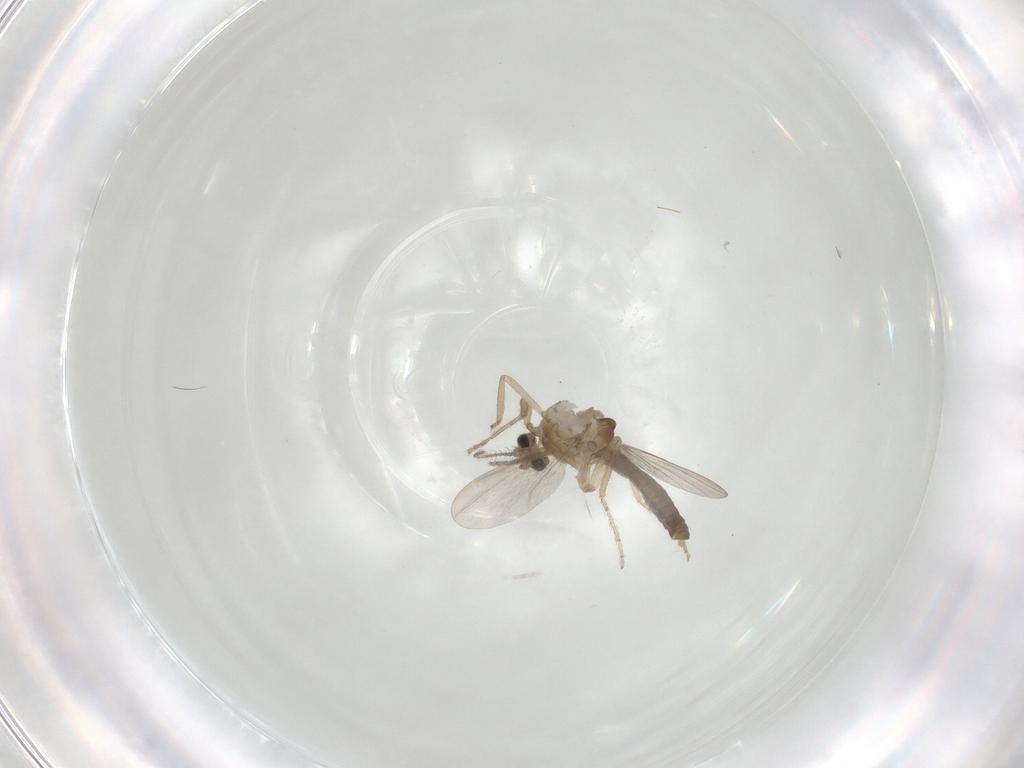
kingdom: Animalia
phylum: Arthropoda
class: Insecta
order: Diptera
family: Ceratopogonidae
